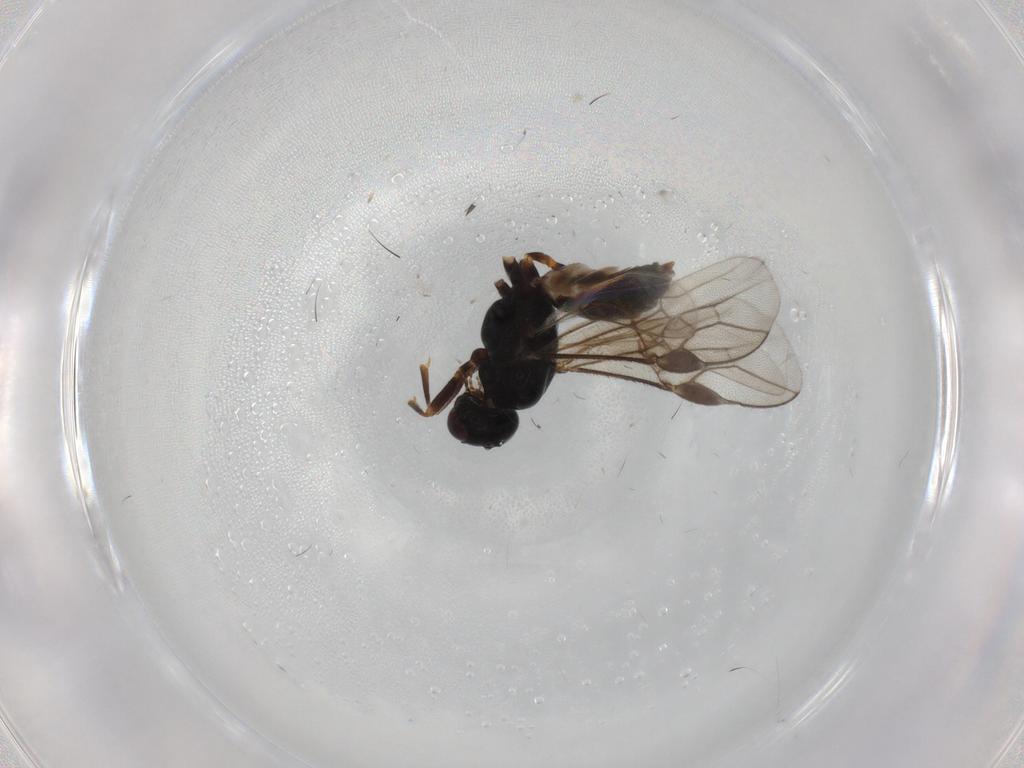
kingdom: Animalia
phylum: Arthropoda
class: Insecta
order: Hymenoptera
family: Braconidae
